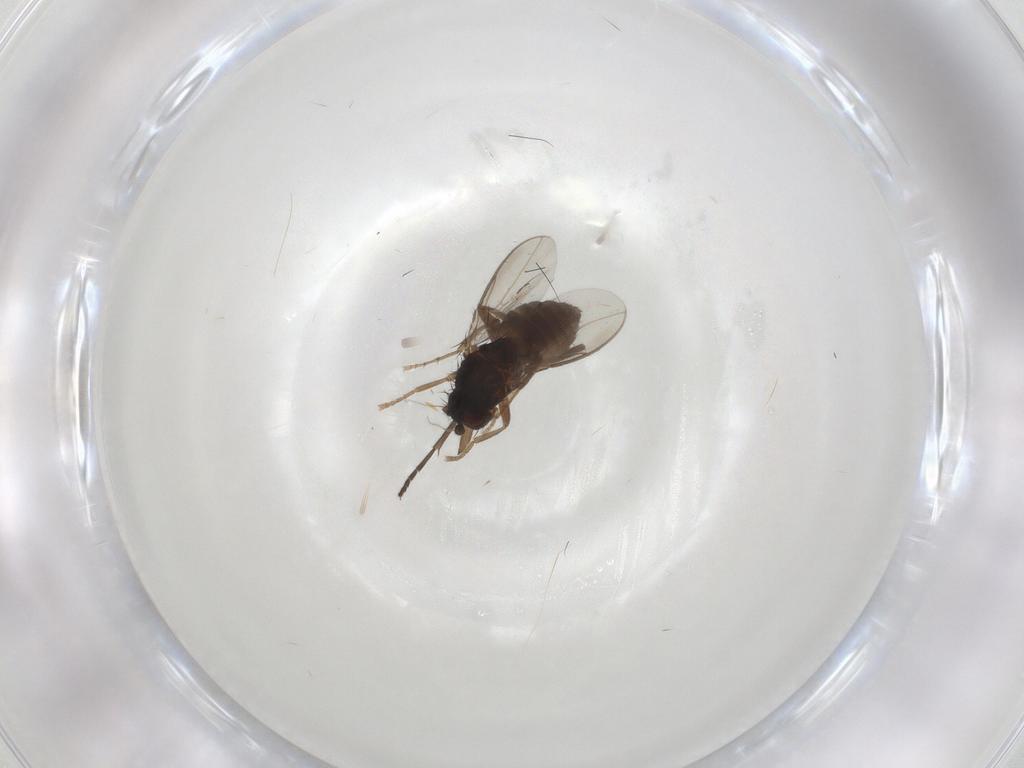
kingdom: Animalia
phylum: Arthropoda
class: Insecta
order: Diptera
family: Sphaeroceridae
